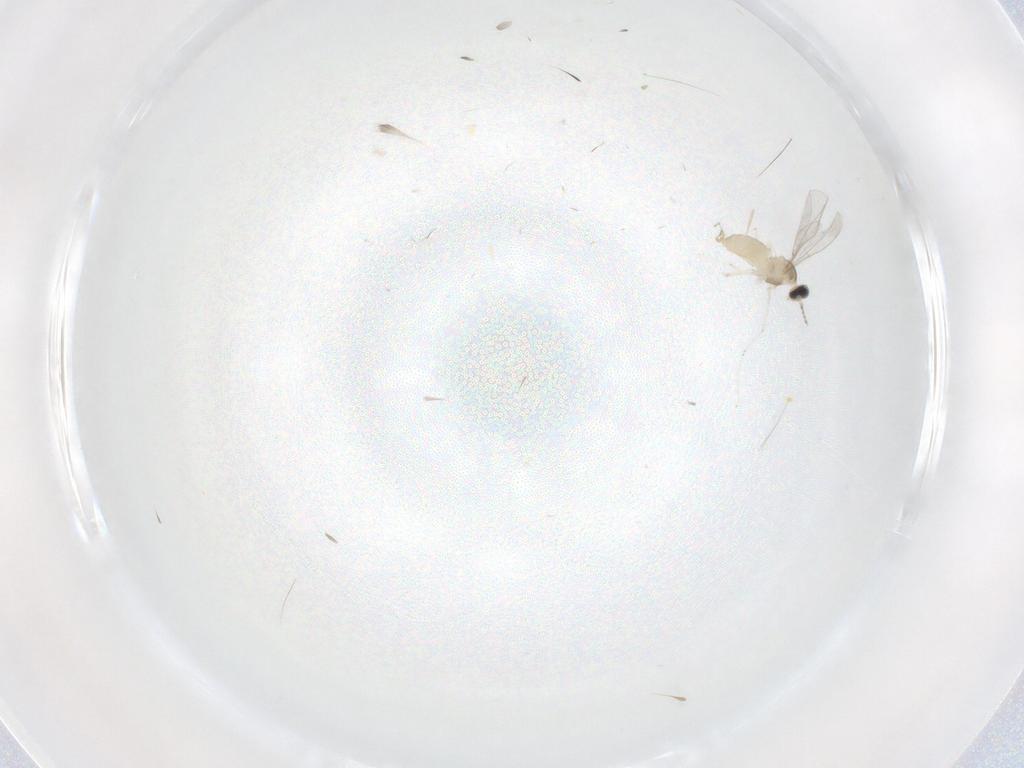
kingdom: Animalia
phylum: Arthropoda
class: Insecta
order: Diptera
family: Cecidomyiidae
